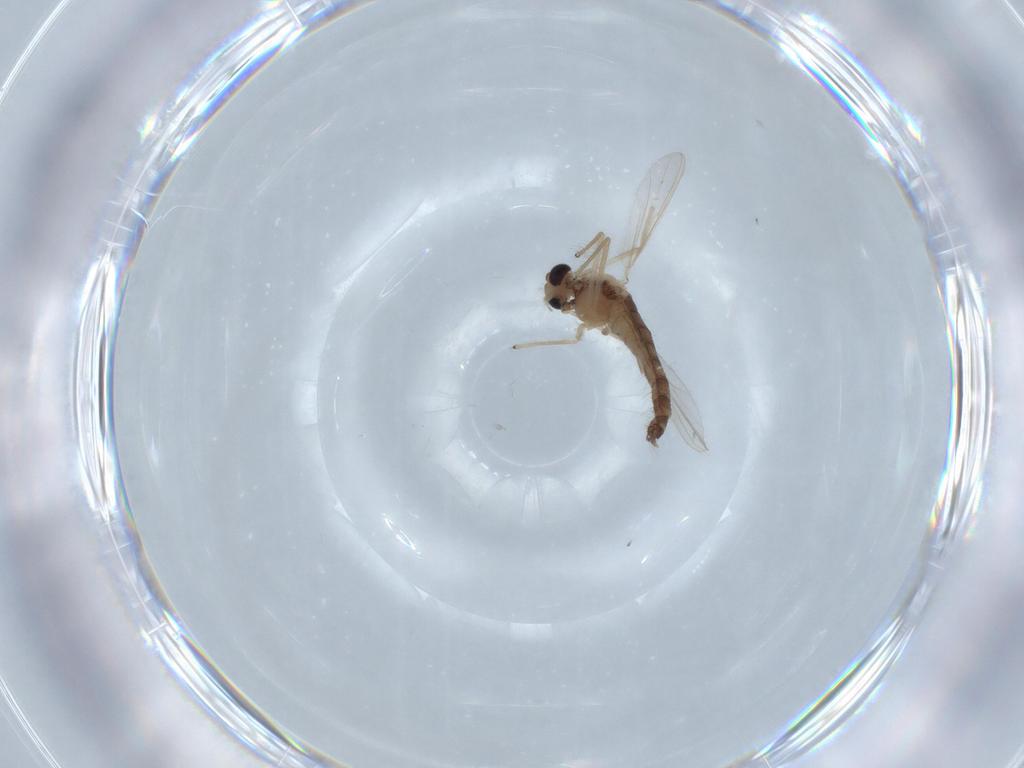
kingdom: Animalia
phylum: Arthropoda
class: Insecta
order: Diptera
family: Chironomidae
